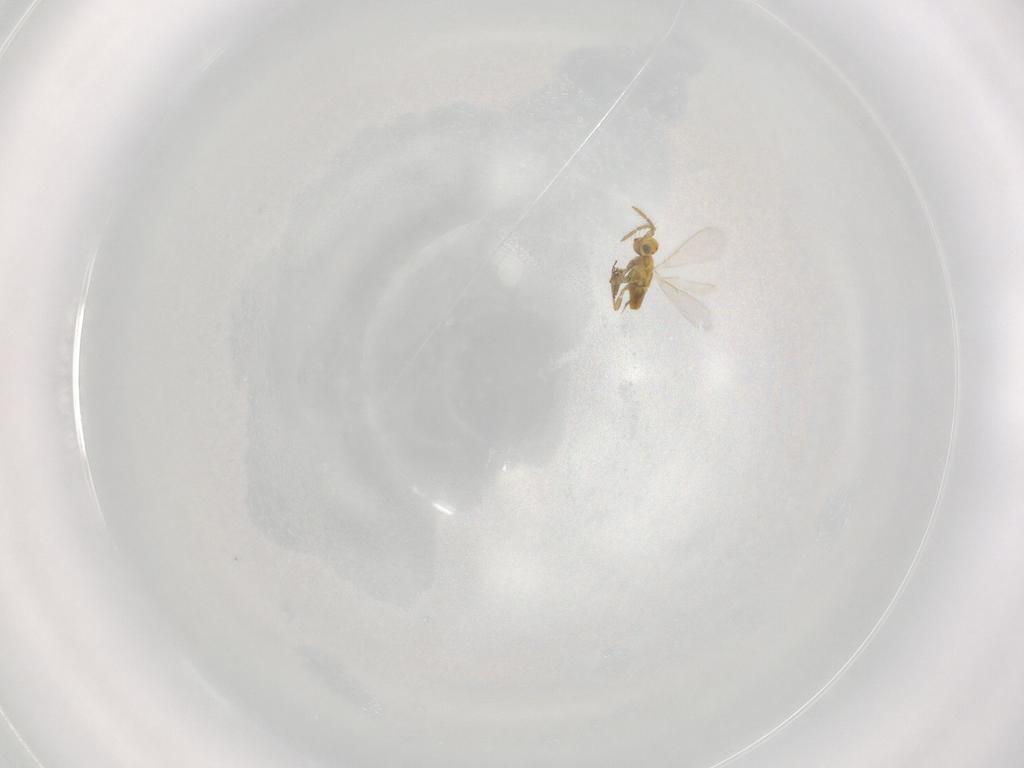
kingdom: Animalia
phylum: Arthropoda
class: Insecta
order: Hymenoptera
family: Aphelinidae
